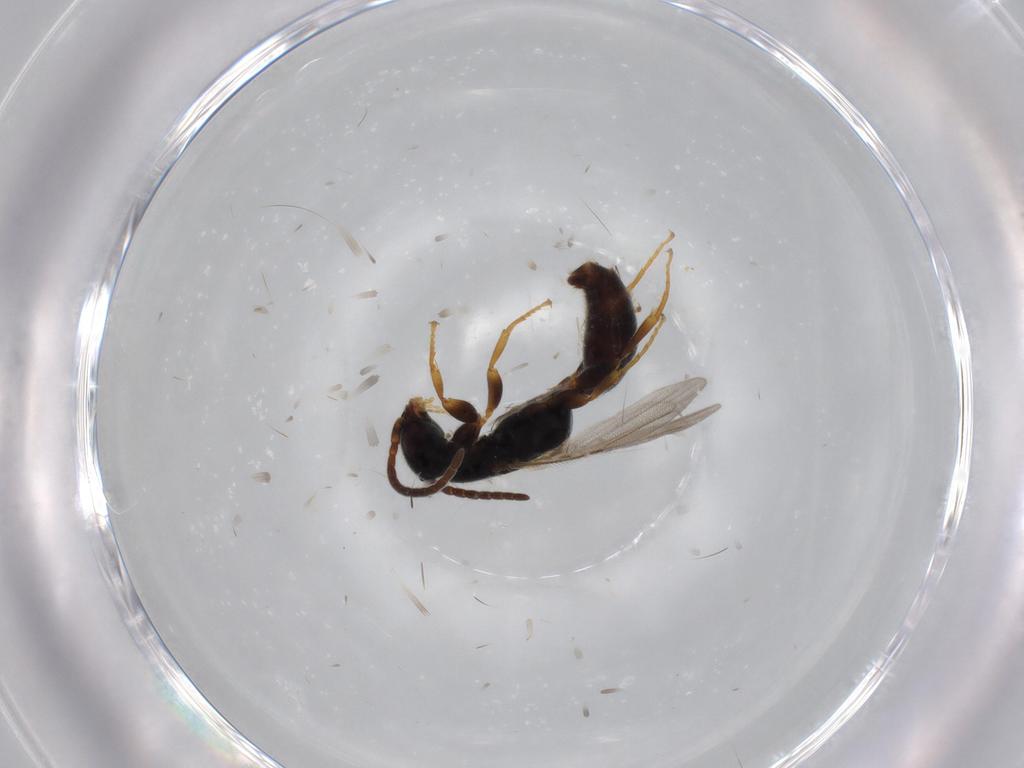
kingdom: Animalia
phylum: Arthropoda
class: Insecta
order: Hymenoptera
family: Bethylidae
